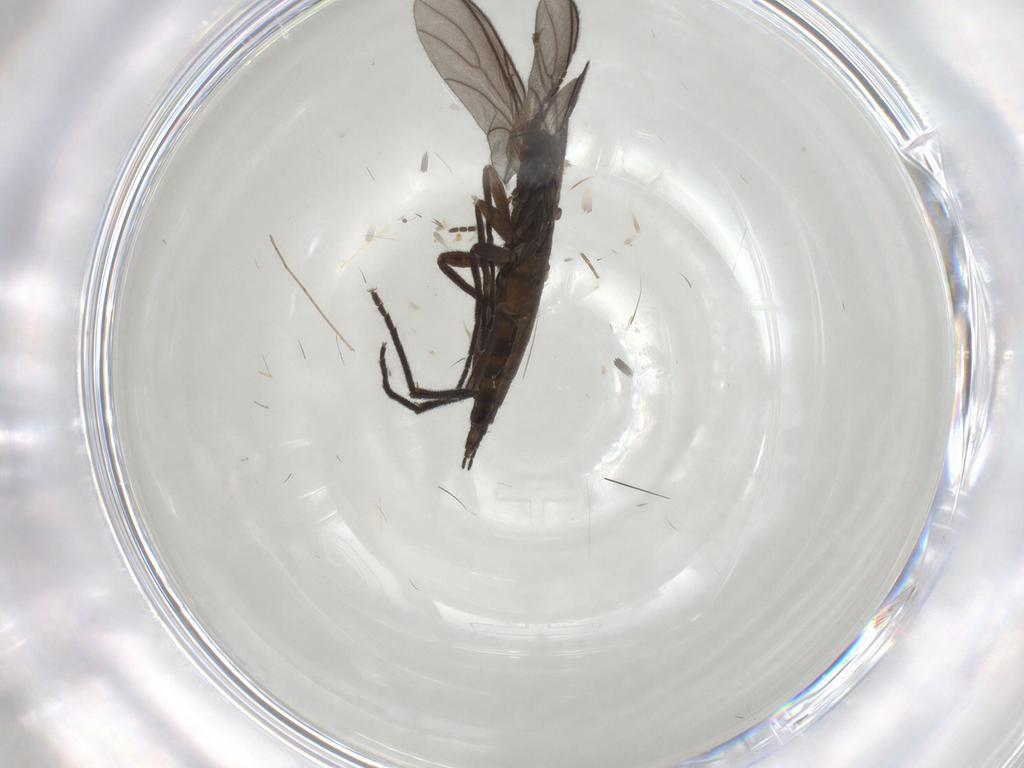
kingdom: Animalia
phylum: Arthropoda
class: Insecta
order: Diptera
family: Sciaridae
